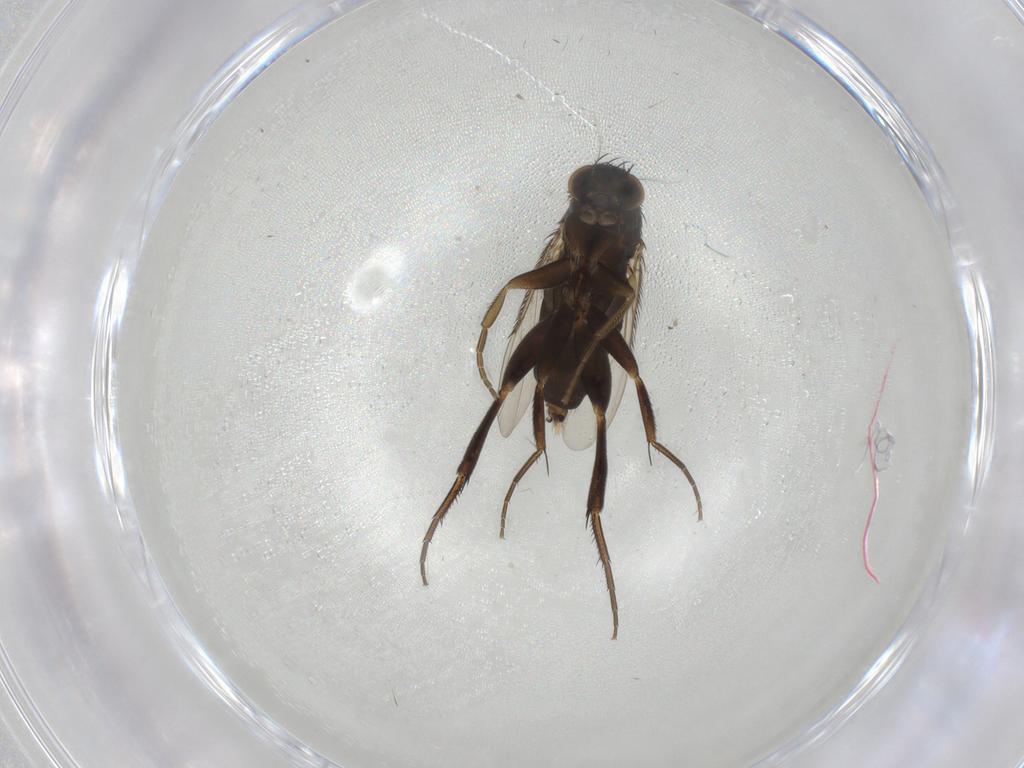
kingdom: Animalia
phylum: Arthropoda
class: Insecta
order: Diptera
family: Phoridae
